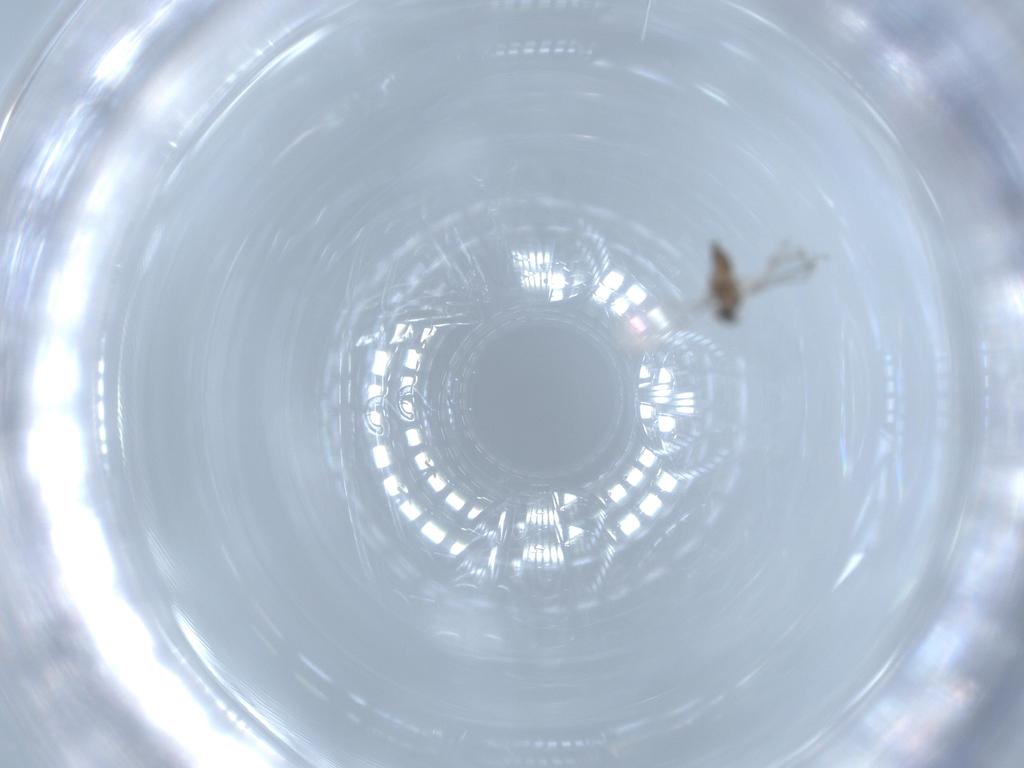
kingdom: Animalia
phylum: Arthropoda
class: Insecta
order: Diptera
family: Cecidomyiidae
